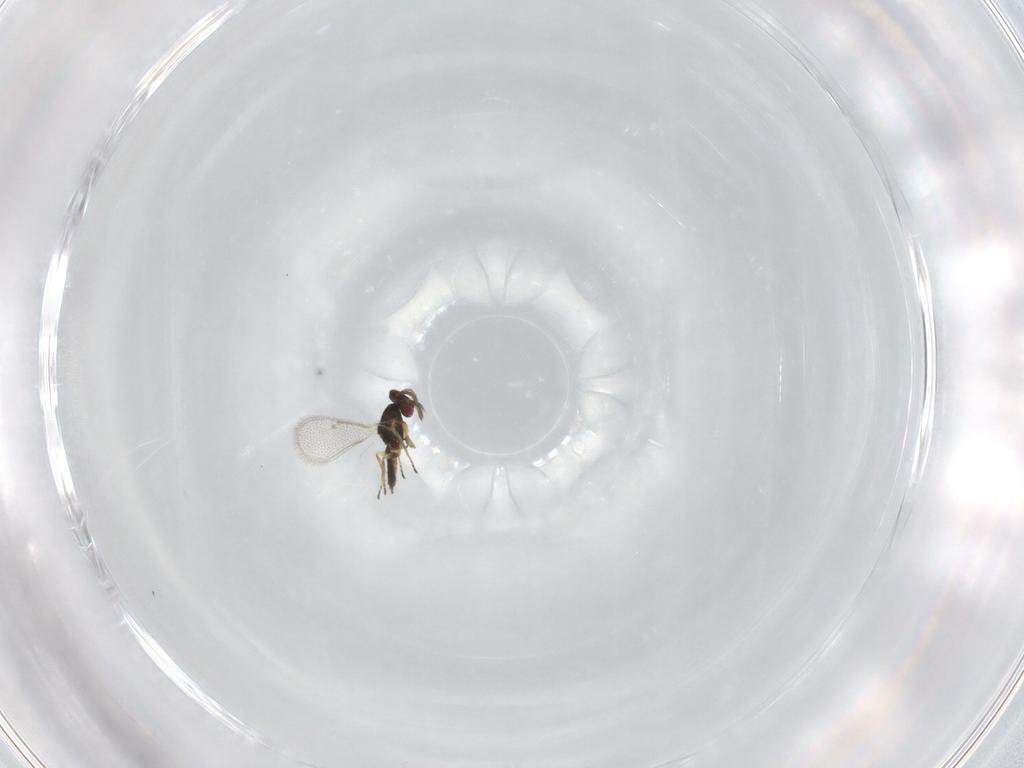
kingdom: Animalia
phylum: Arthropoda
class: Insecta
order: Hymenoptera
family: Eulophidae
